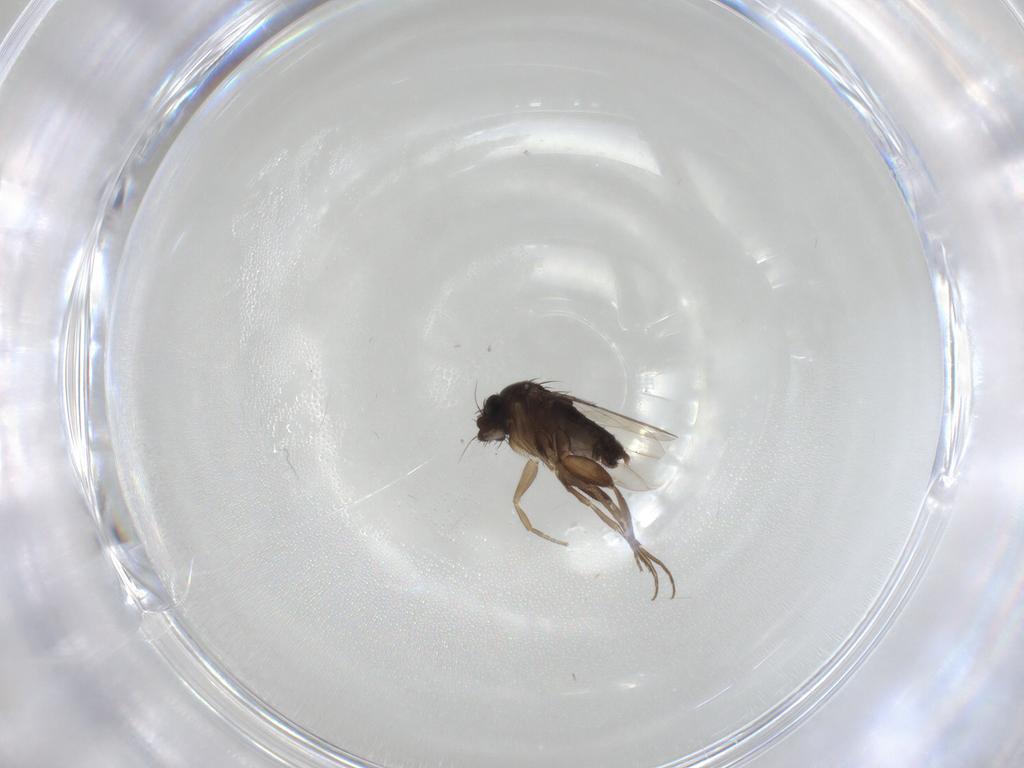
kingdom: Animalia
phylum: Arthropoda
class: Insecta
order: Diptera
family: Phoridae
